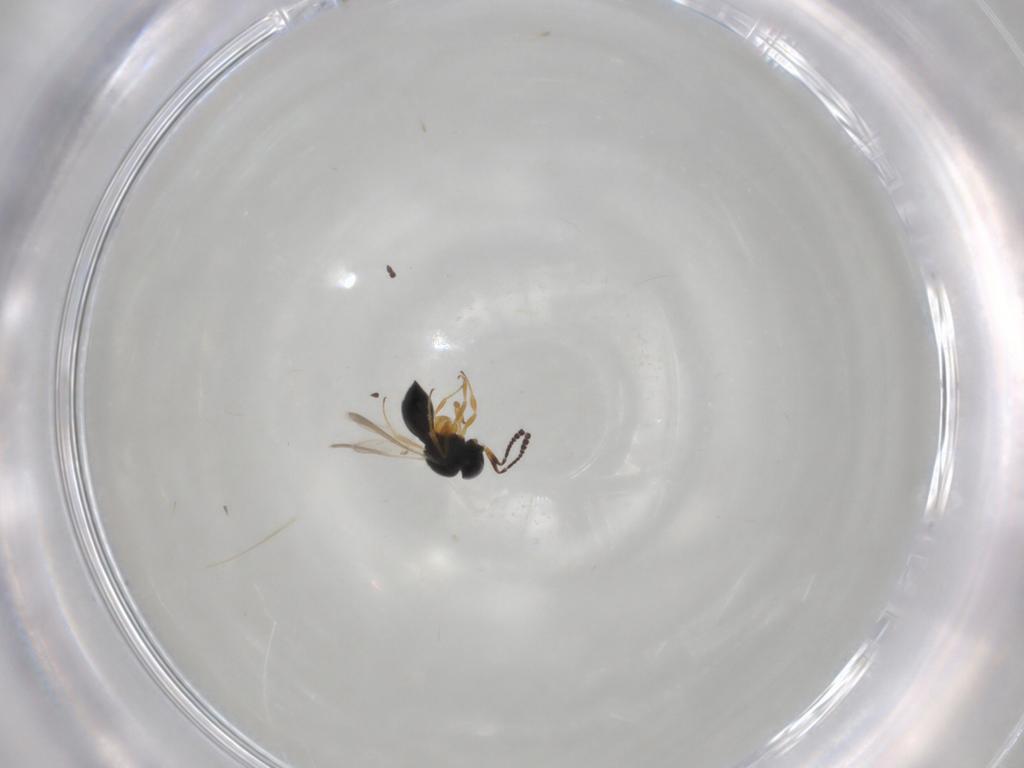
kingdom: Animalia
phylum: Arthropoda
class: Insecta
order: Hymenoptera
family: Scelionidae
